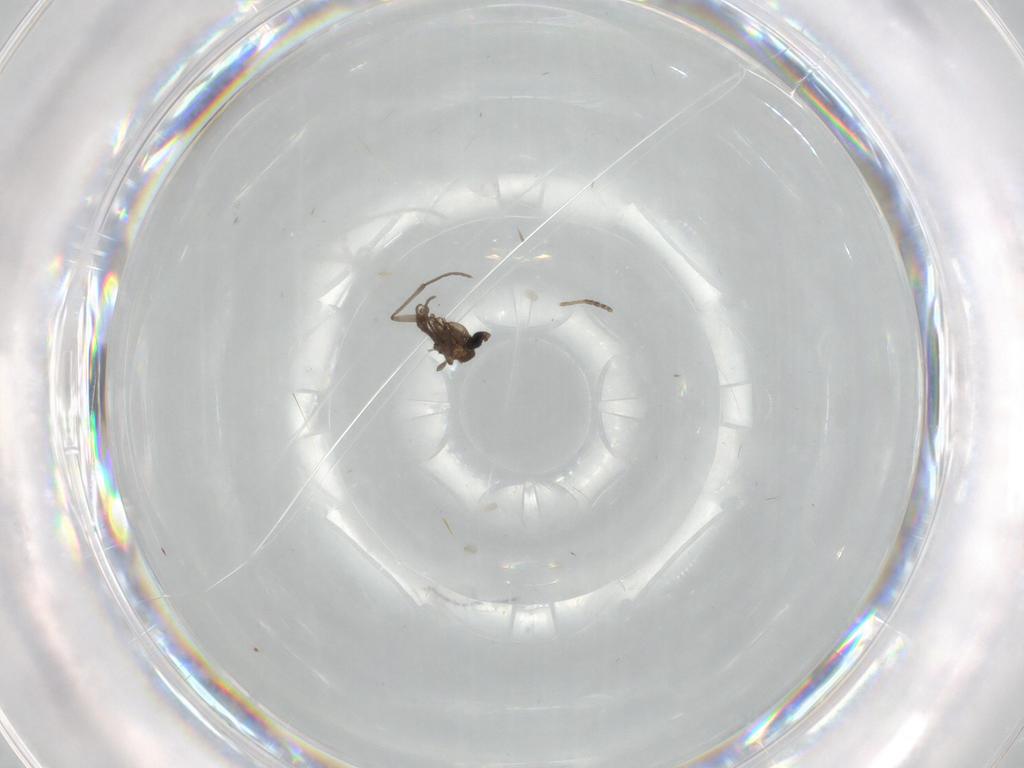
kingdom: Animalia
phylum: Arthropoda
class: Insecta
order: Diptera
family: Sciaridae
